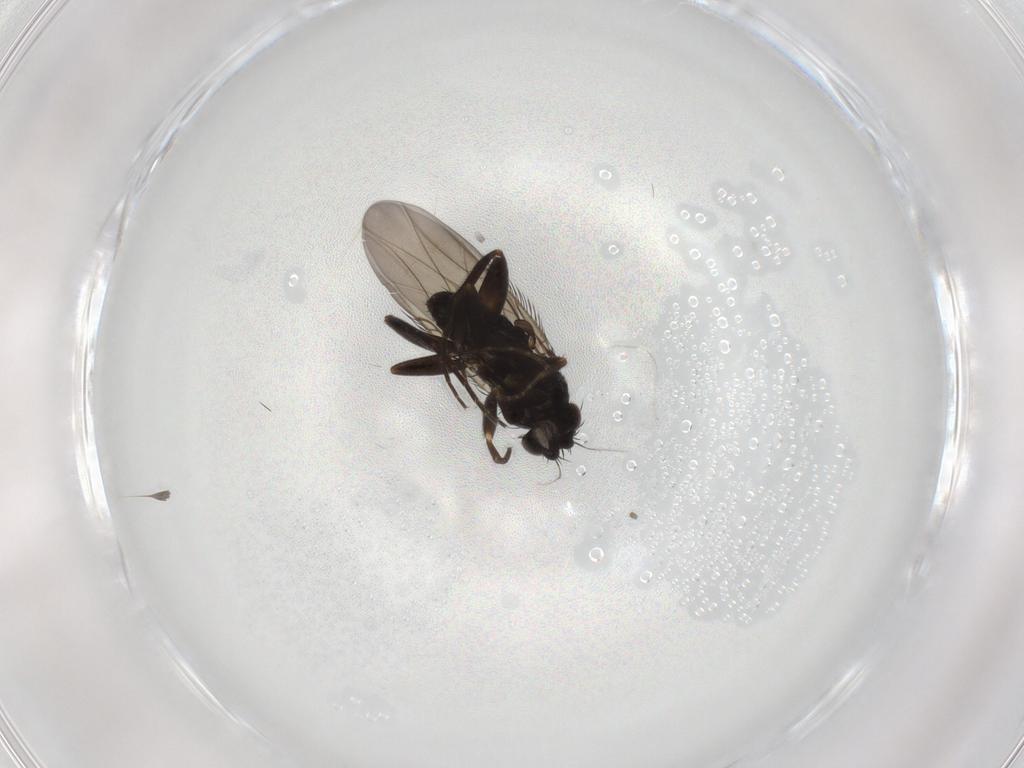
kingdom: Animalia
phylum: Arthropoda
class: Insecta
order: Diptera
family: Phoridae
